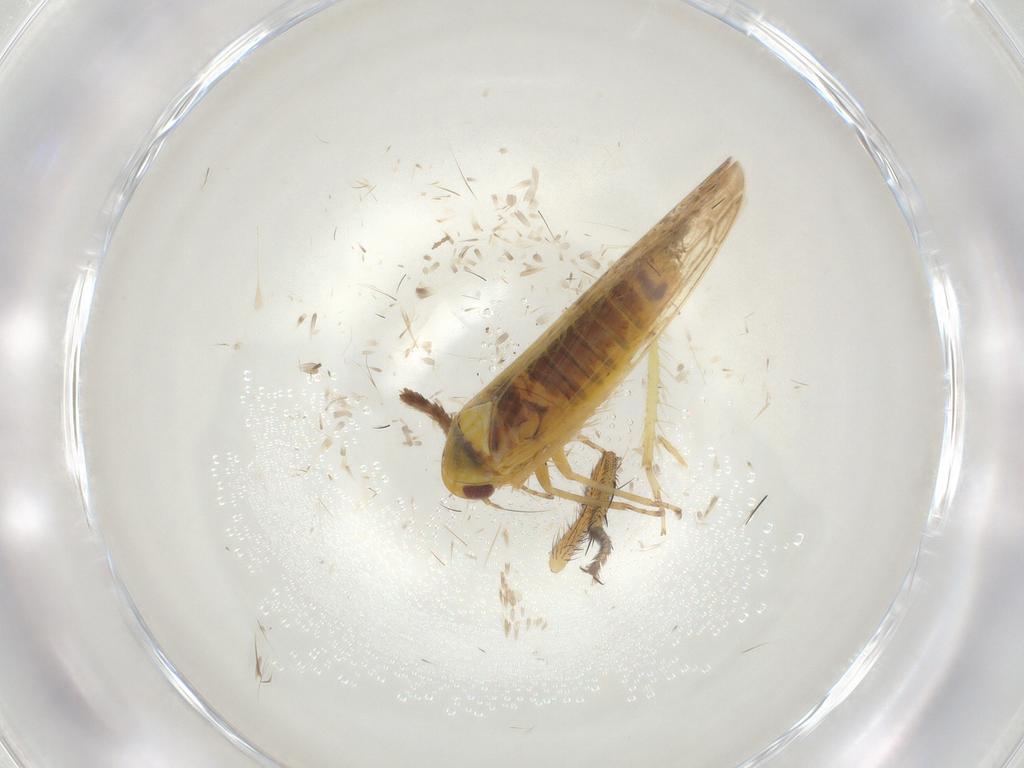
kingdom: Animalia
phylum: Arthropoda
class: Insecta
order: Hemiptera
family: Cicadellidae
